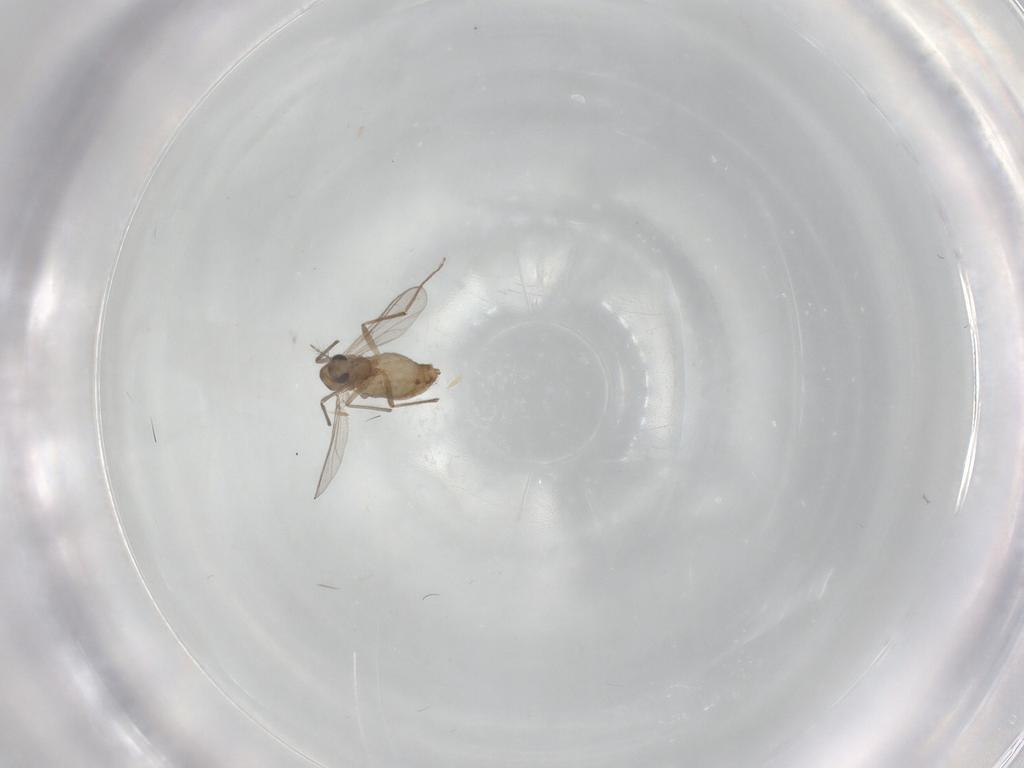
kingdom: Animalia
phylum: Arthropoda
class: Insecta
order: Diptera
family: Chironomidae
